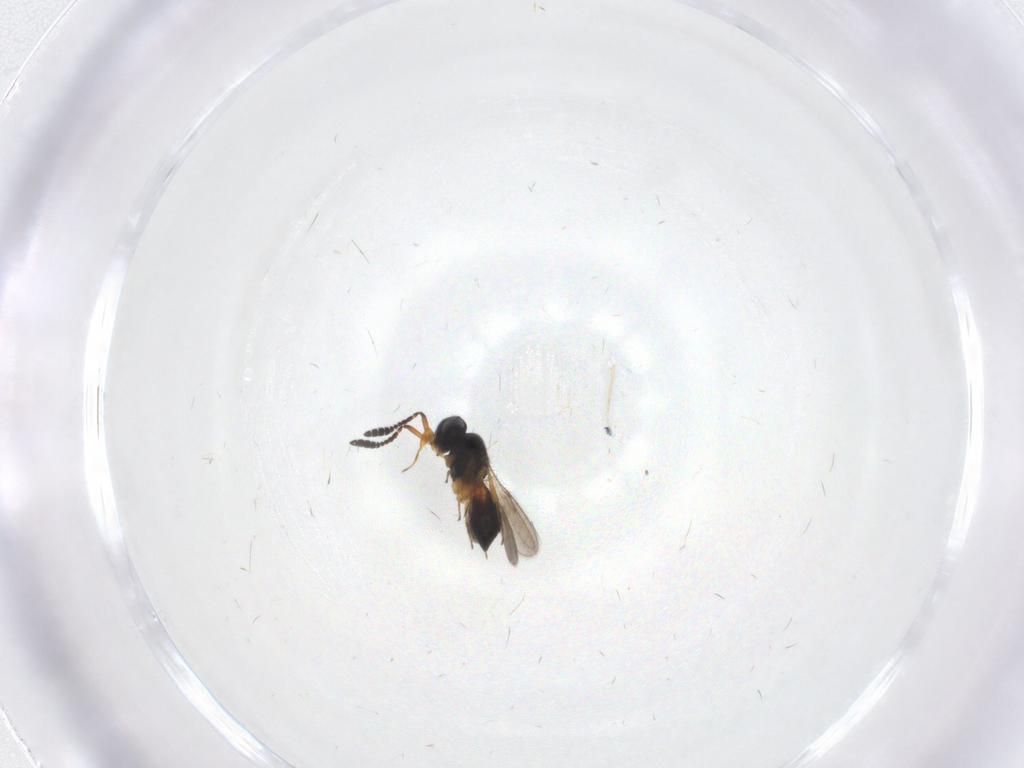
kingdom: Animalia
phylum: Arthropoda
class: Insecta
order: Hymenoptera
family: Scelionidae
